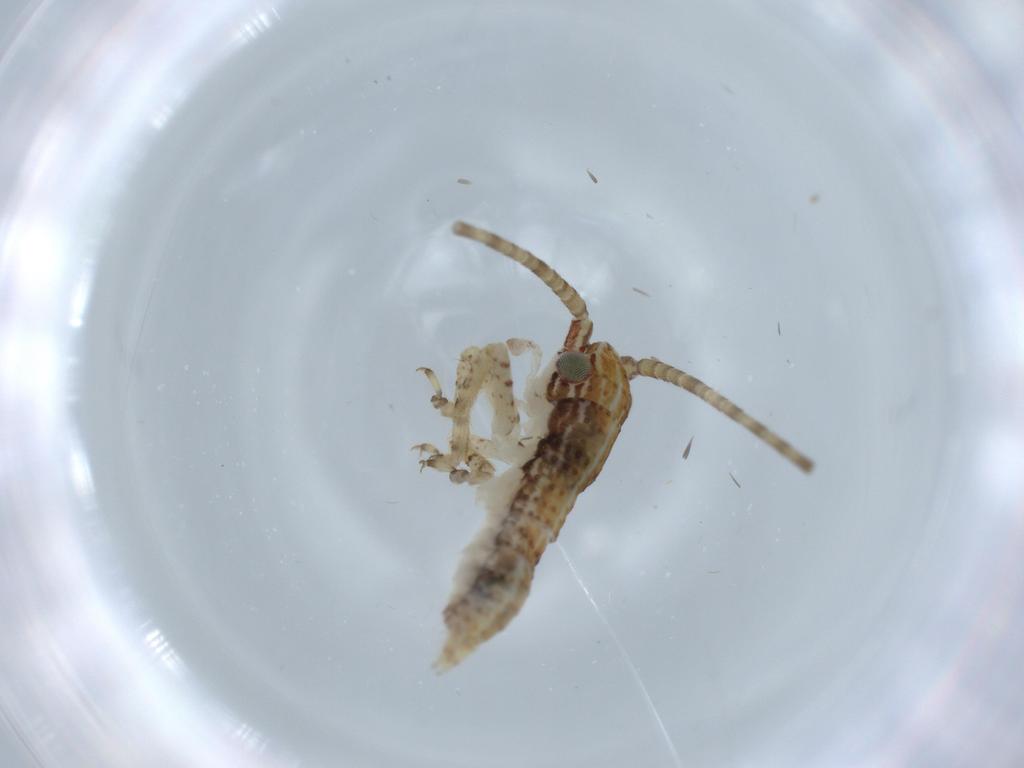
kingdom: Animalia
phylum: Arthropoda
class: Insecta
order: Orthoptera
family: Gryllidae
